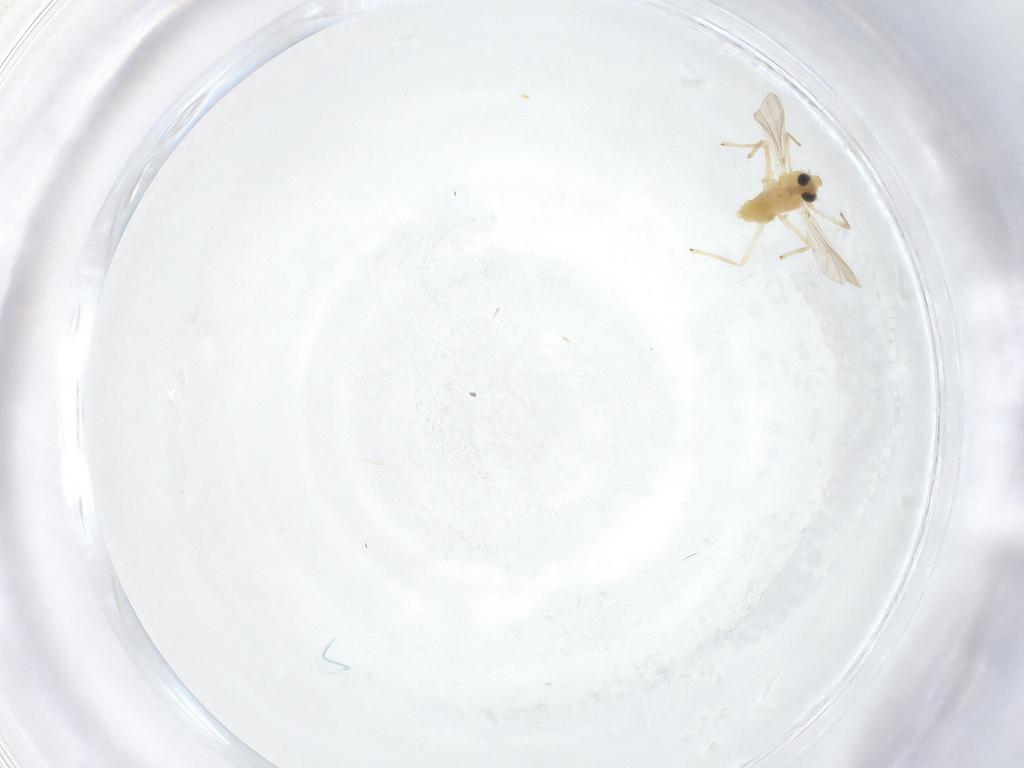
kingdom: Animalia
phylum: Arthropoda
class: Insecta
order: Diptera
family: Chironomidae
